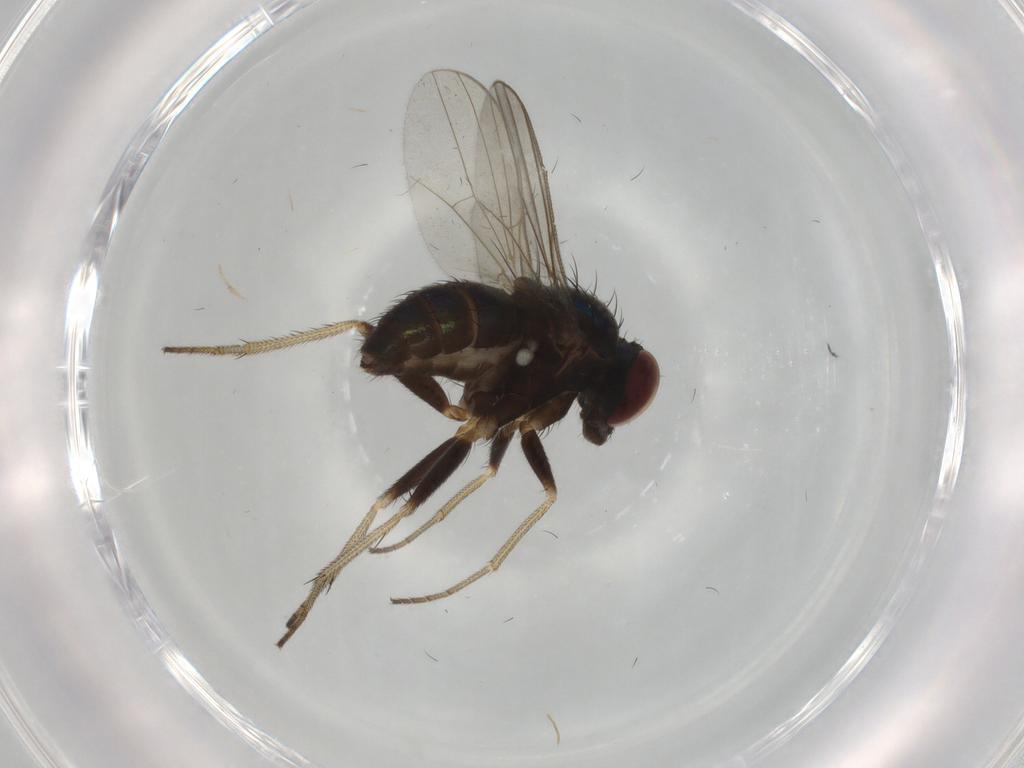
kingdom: Animalia
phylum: Arthropoda
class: Insecta
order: Diptera
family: Dolichopodidae
